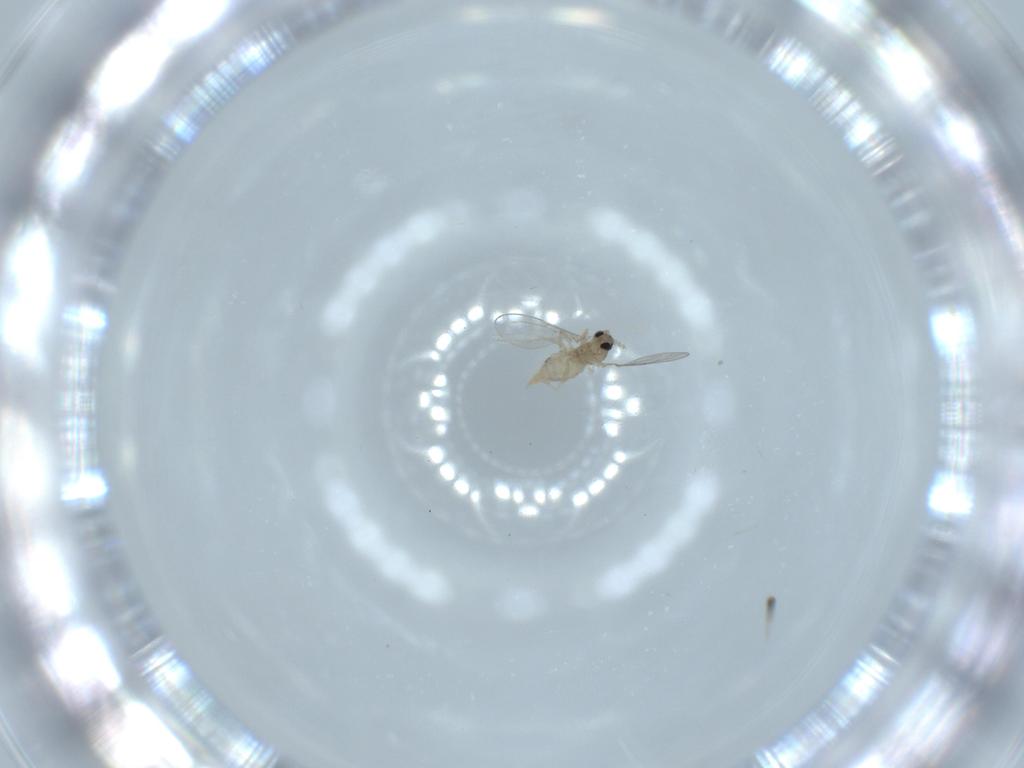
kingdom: Animalia
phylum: Arthropoda
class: Insecta
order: Diptera
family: Cecidomyiidae
